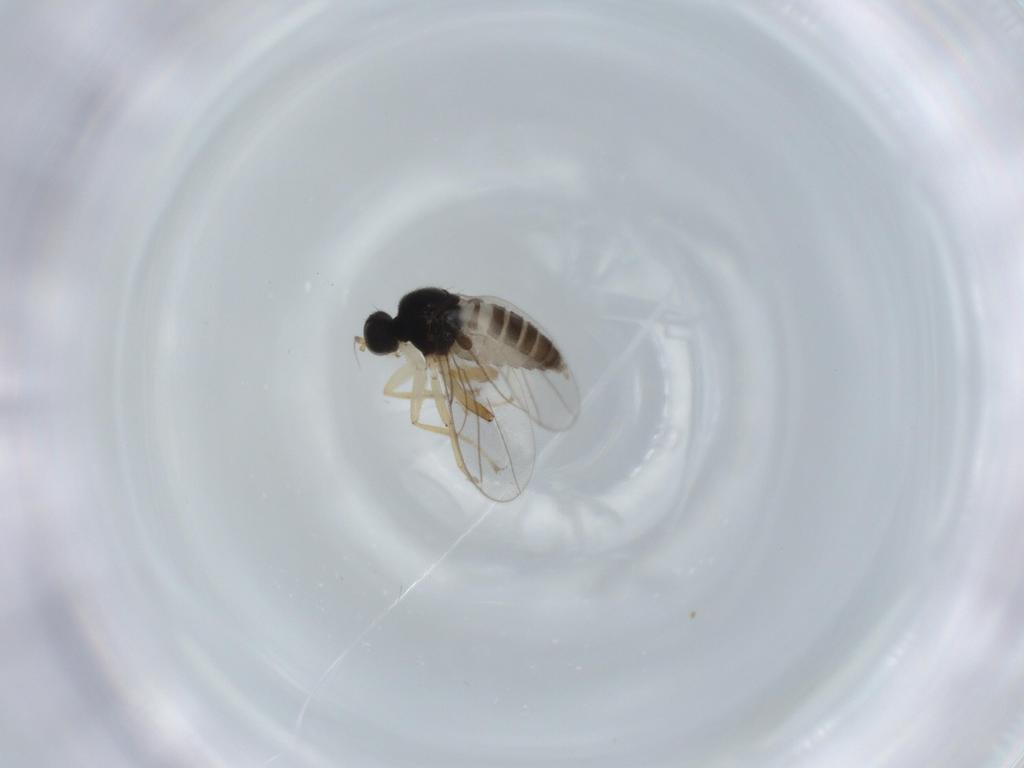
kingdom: Animalia
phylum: Arthropoda
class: Insecta
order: Diptera
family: Hybotidae
